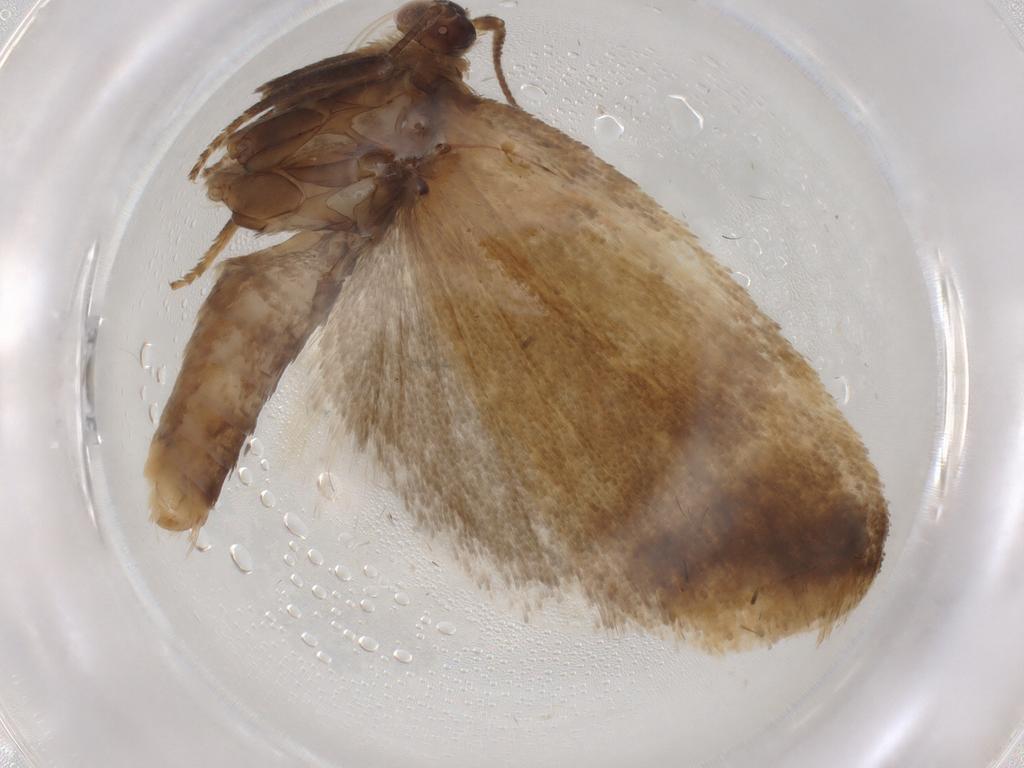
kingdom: Animalia
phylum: Arthropoda
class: Insecta
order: Lepidoptera
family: Tortricidae
